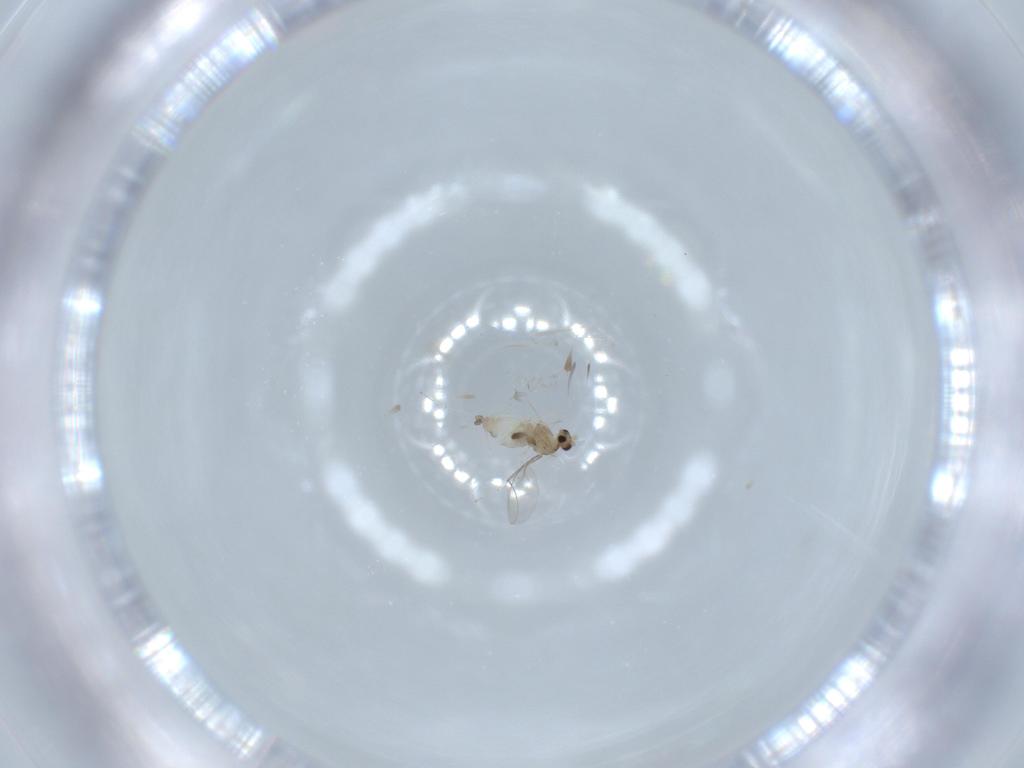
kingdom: Animalia
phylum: Arthropoda
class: Insecta
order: Diptera
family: Cecidomyiidae
